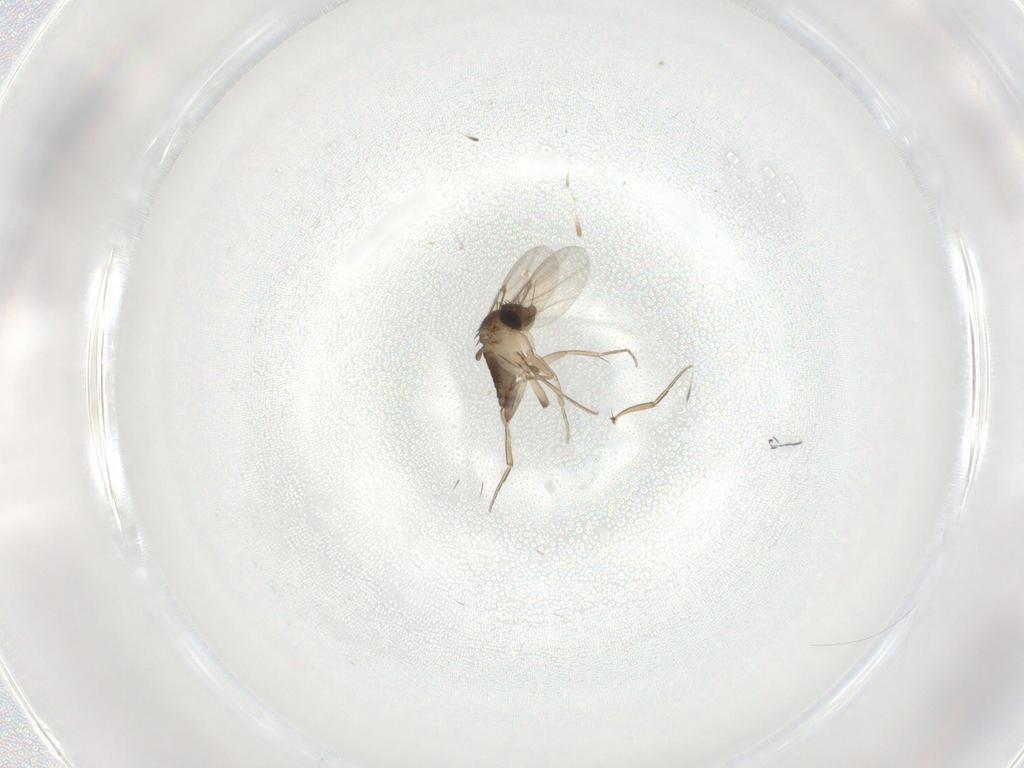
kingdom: Animalia
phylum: Arthropoda
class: Insecta
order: Diptera
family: Phoridae
